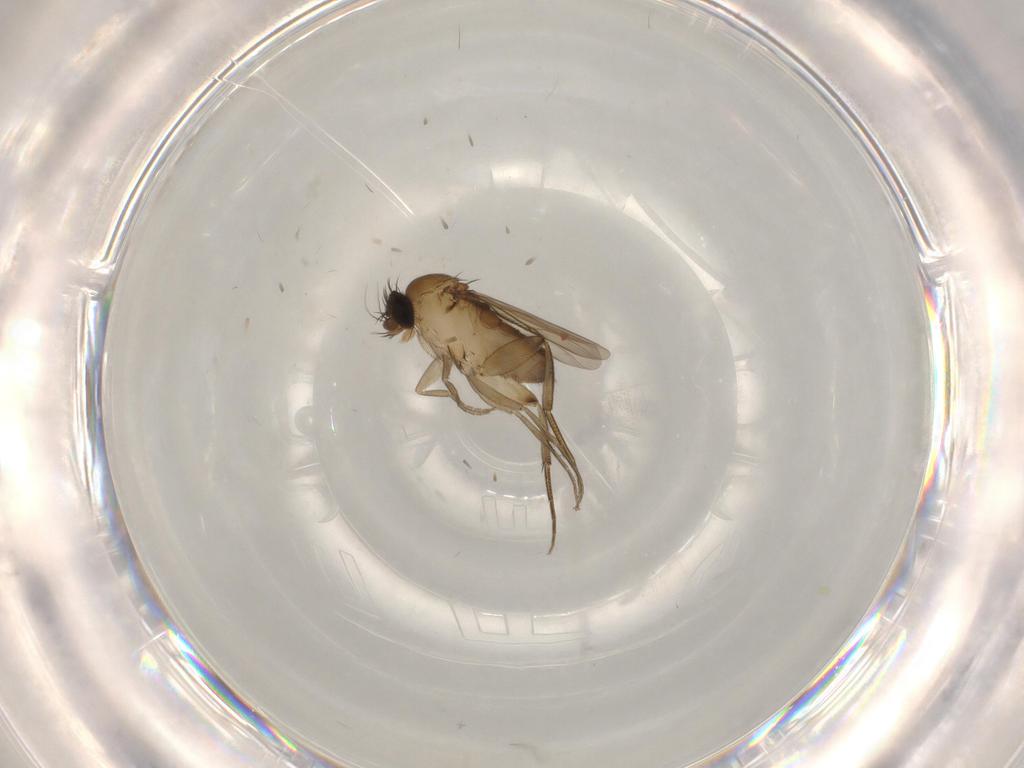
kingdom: Animalia
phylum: Arthropoda
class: Insecta
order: Diptera
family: Phoridae
